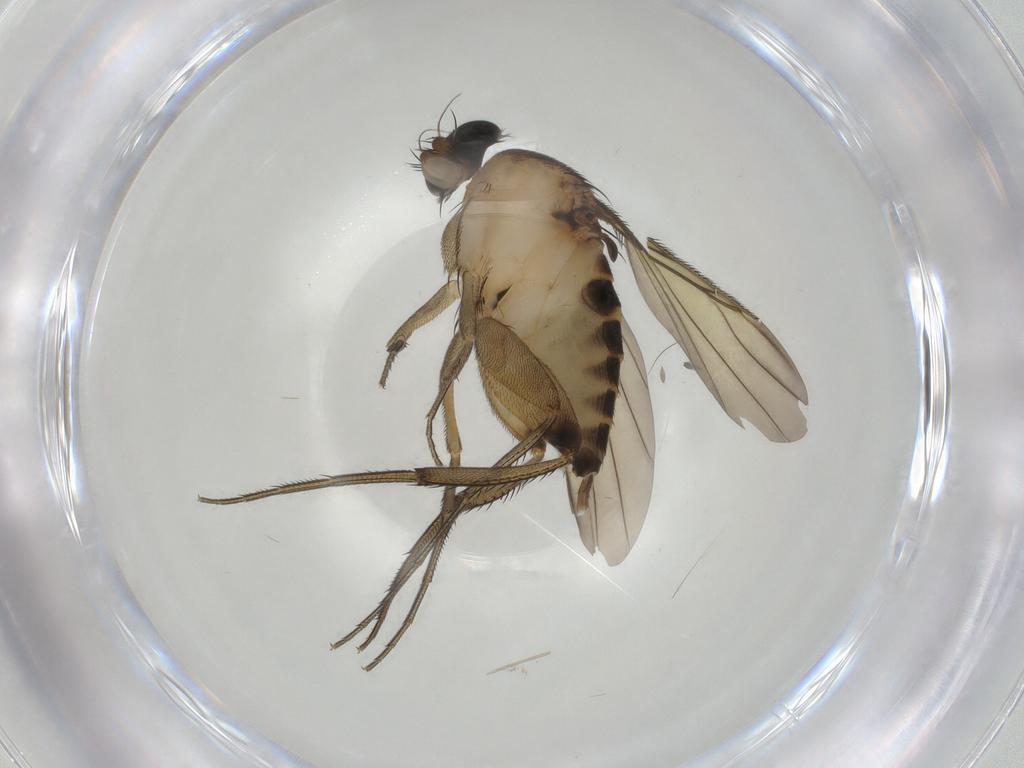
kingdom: Animalia
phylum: Arthropoda
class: Insecta
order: Diptera
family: Phoridae
